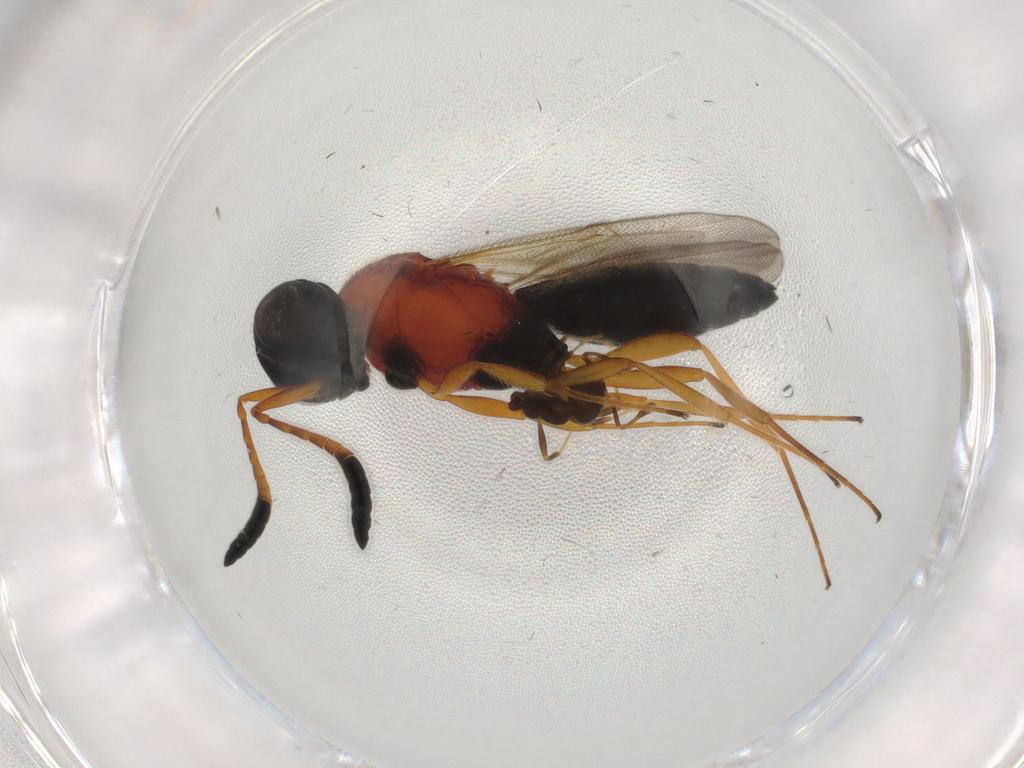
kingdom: Animalia
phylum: Arthropoda
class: Insecta
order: Hymenoptera
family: Scelionidae
